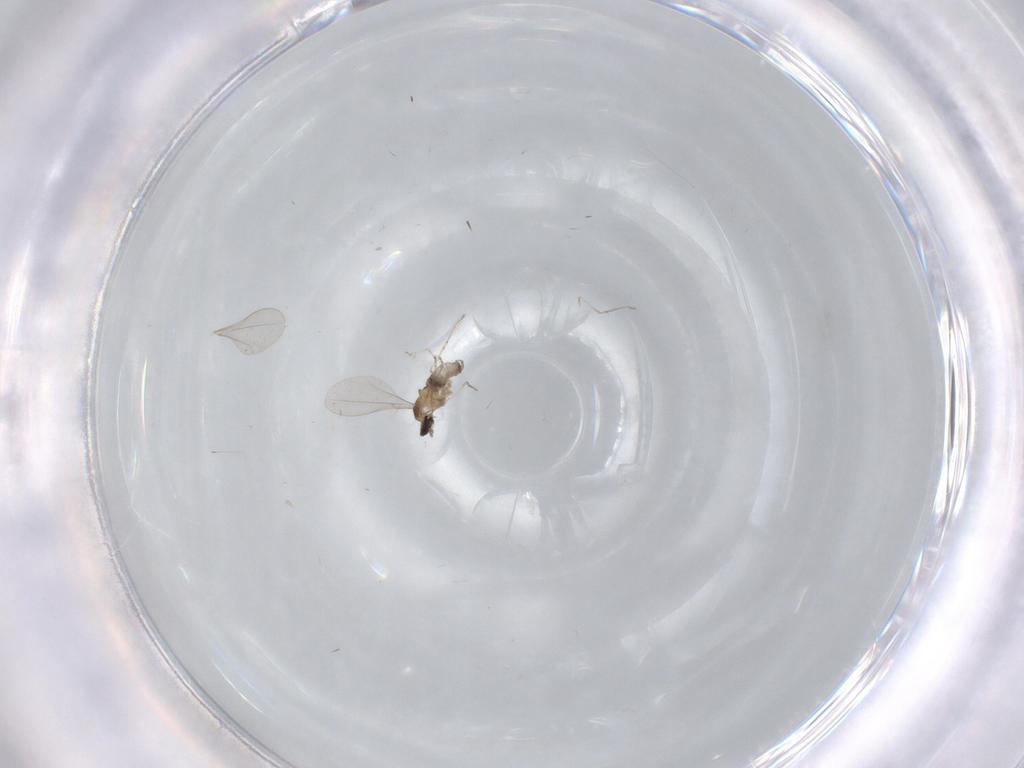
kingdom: Animalia
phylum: Arthropoda
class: Insecta
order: Diptera
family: Cecidomyiidae
